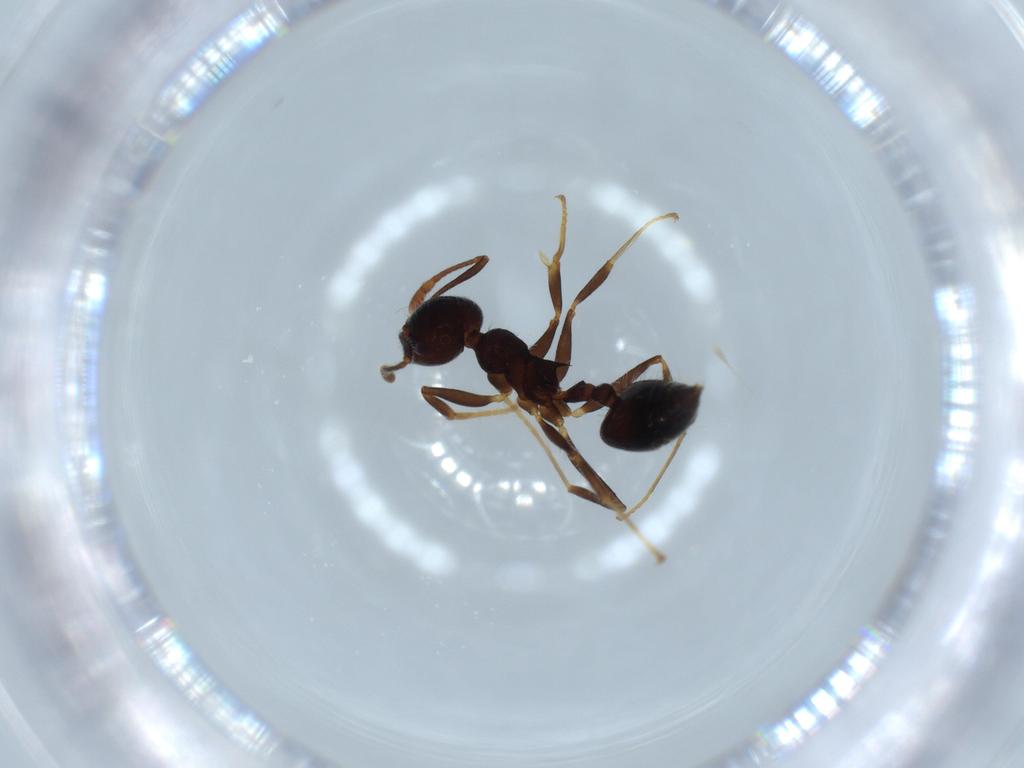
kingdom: Animalia
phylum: Arthropoda
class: Insecta
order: Hymenoptera
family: Formicidae
